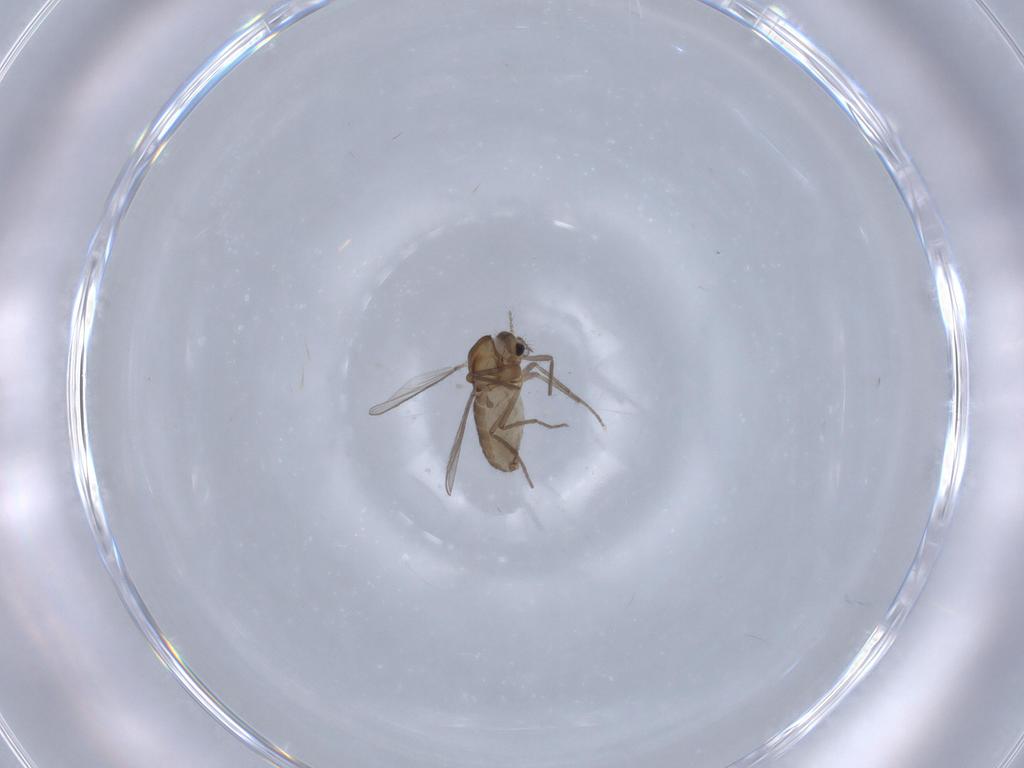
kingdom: Animalia
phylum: Arthropoda
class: Insecta
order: Diptera
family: Chironomidae
